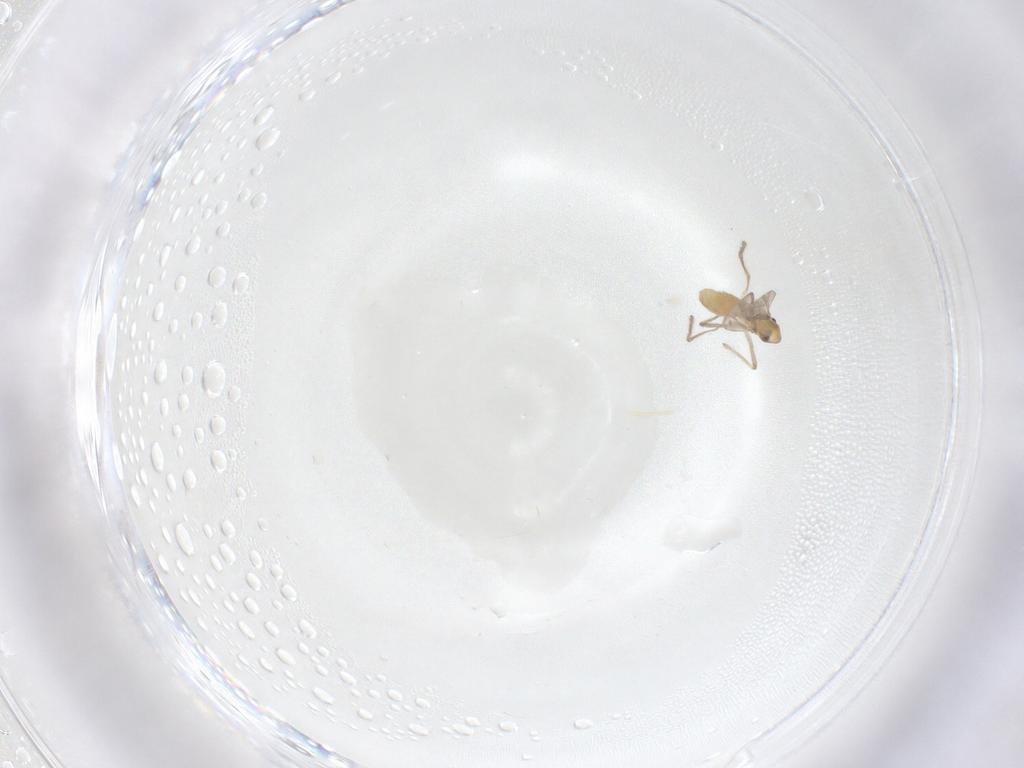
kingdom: Animalia
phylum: Arthropoda
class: Insecta
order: Diptera
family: Chironomidae
